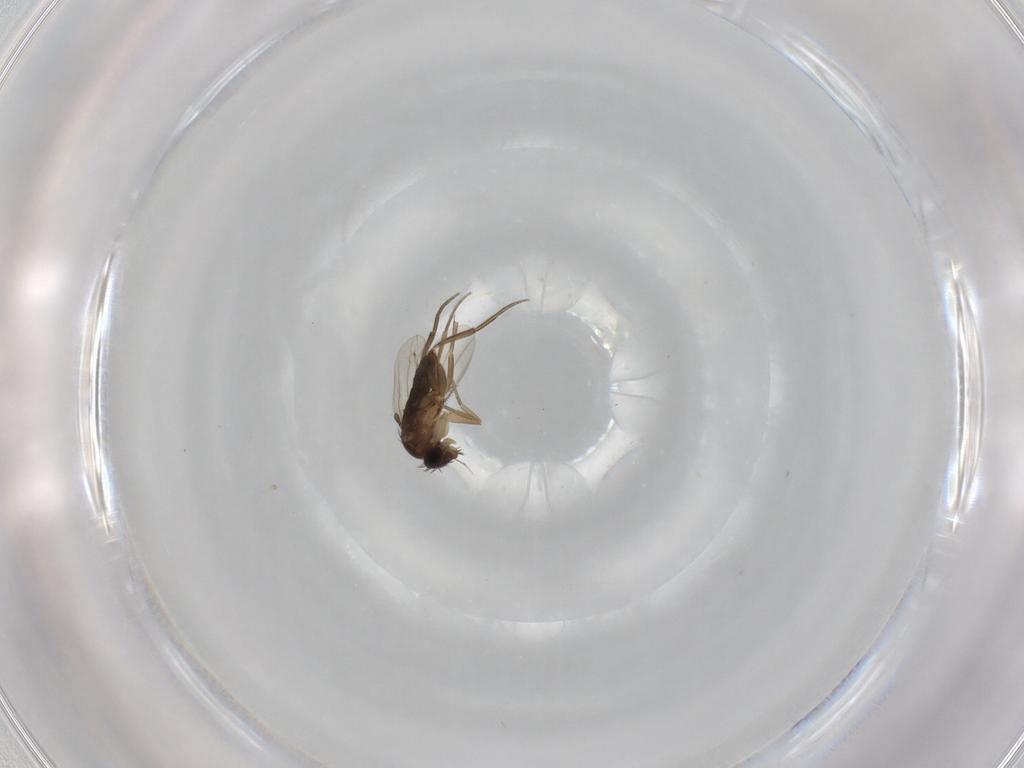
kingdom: Animalia
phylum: Arthropoda
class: Insecta
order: Diptera
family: Phoridae
